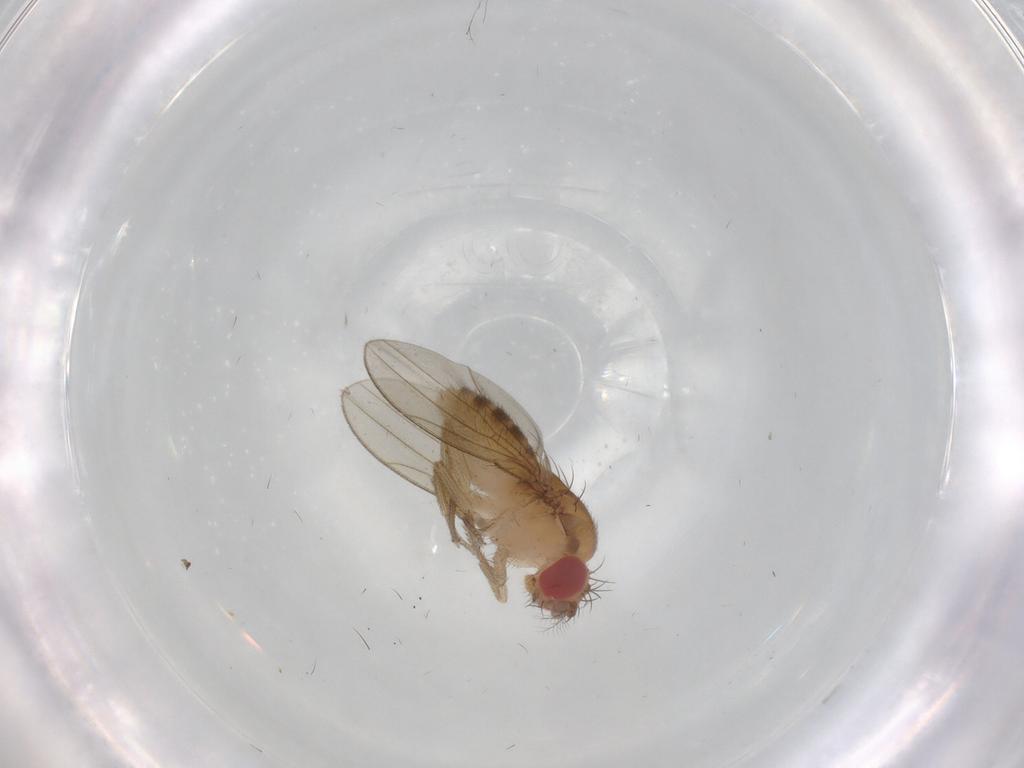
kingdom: Animalia
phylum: Arthropoda
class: Insecta
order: Diptera
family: Drosophilidae
